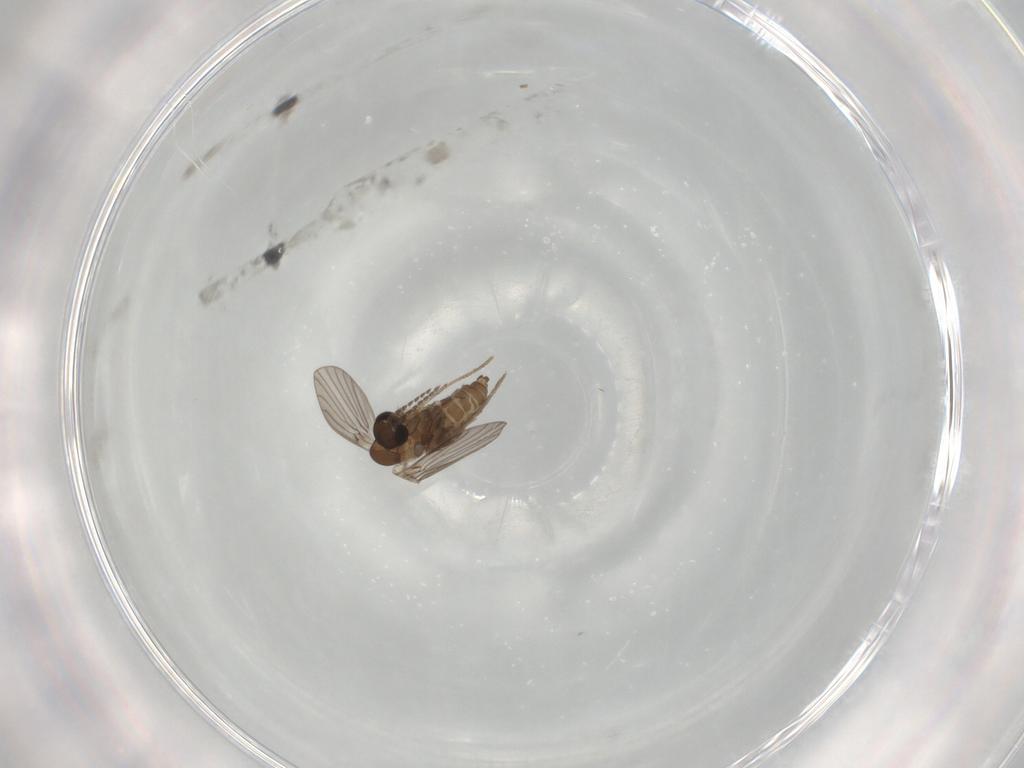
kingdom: Animalia
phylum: Arthropoda
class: Insecta
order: Diptera
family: Psychodidae
